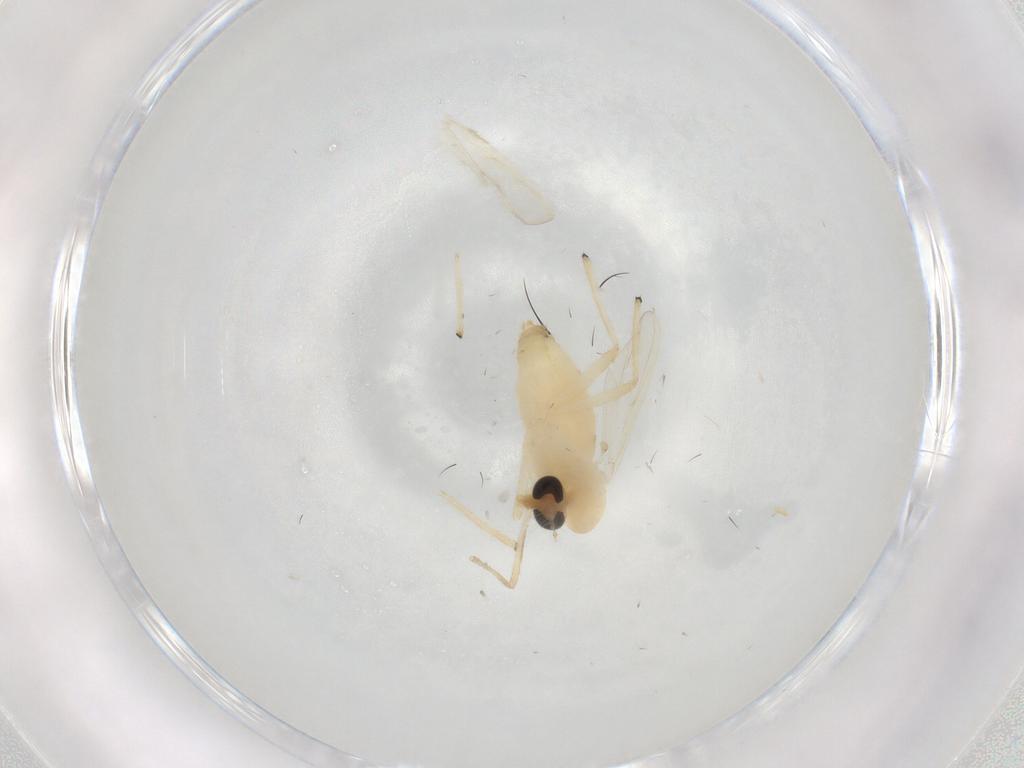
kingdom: Animalia
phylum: Arthropoda
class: Insecta
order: Diptera
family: Chironomidae
